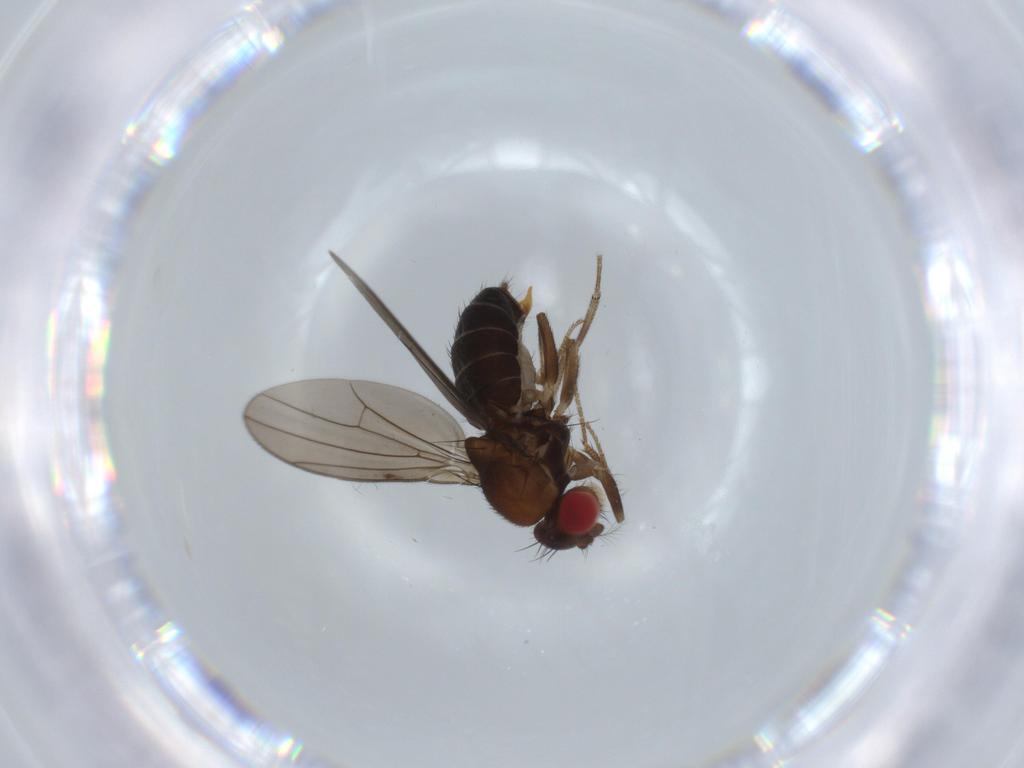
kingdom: Animalia
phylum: Arthropoda
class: Insecta
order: Diptera
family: Drosophilidae
